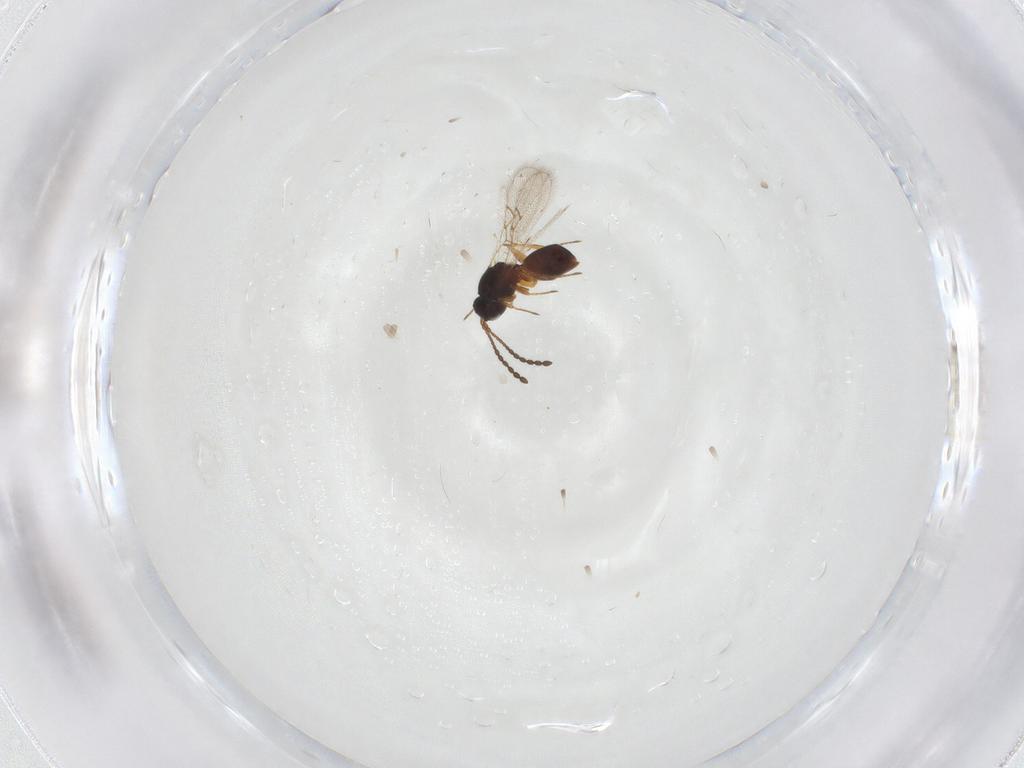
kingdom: Animalia
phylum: Arthropoda
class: Insecta
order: Hymenoptera
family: Figitidae
